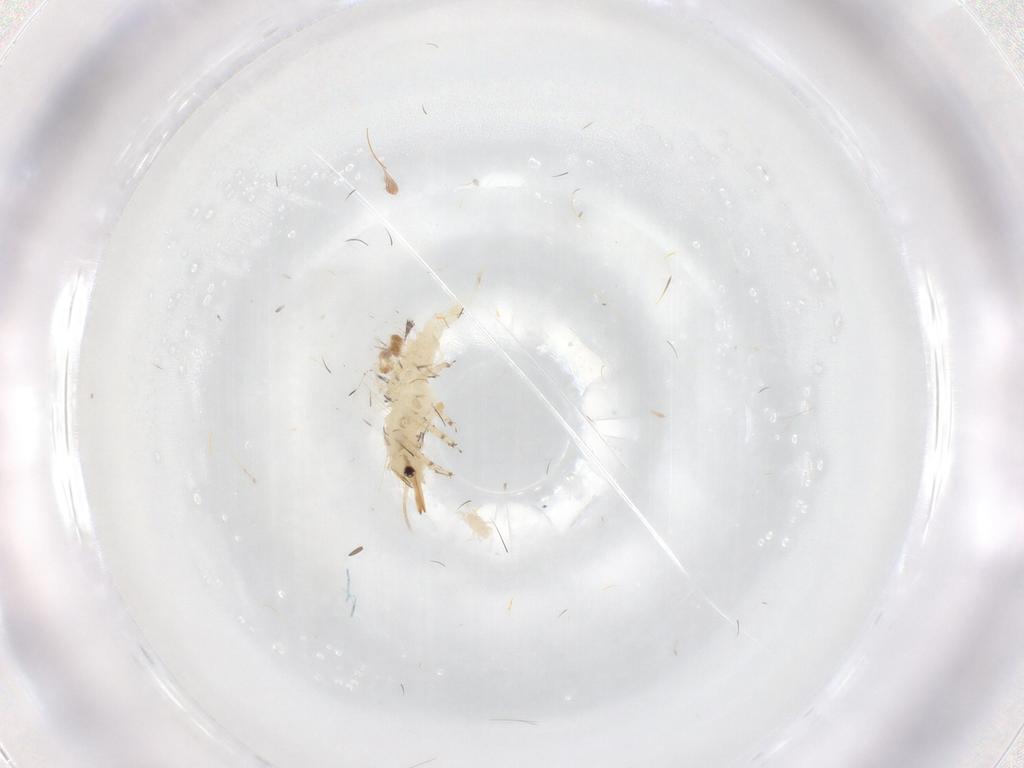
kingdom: Animalia
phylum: Arthropoda
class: Insecta
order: Neuroptera
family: Chrysopidae
